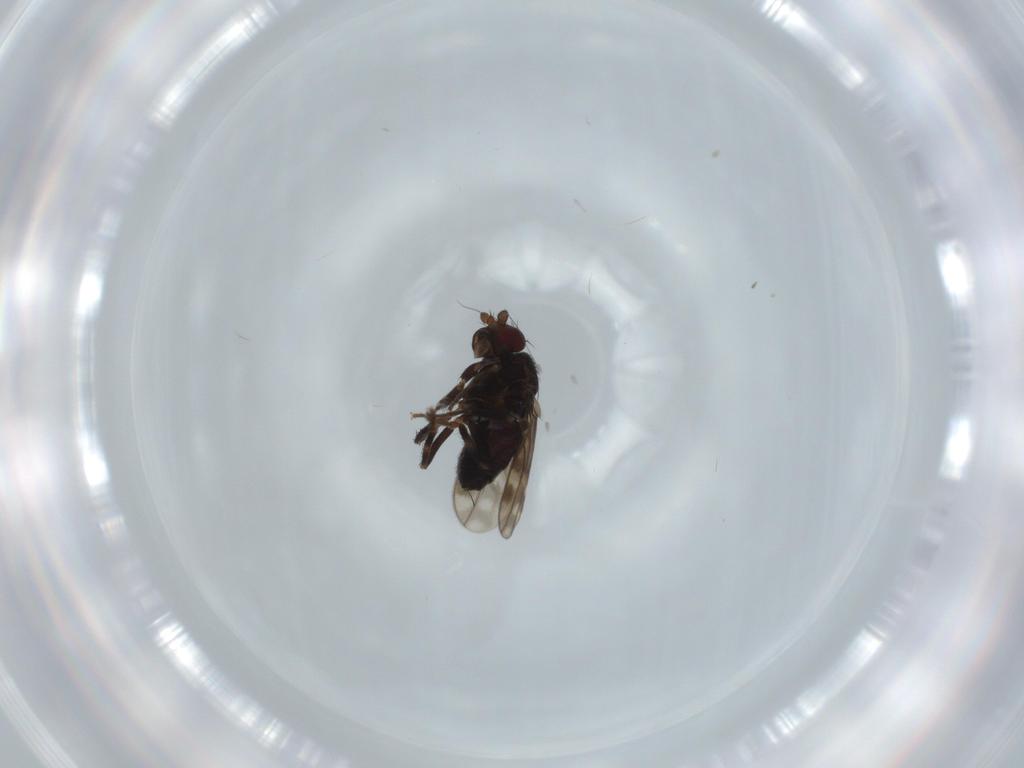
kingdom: Animalia
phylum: Arthropoda
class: Insecta
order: Diptera
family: Sphaeroceridae
